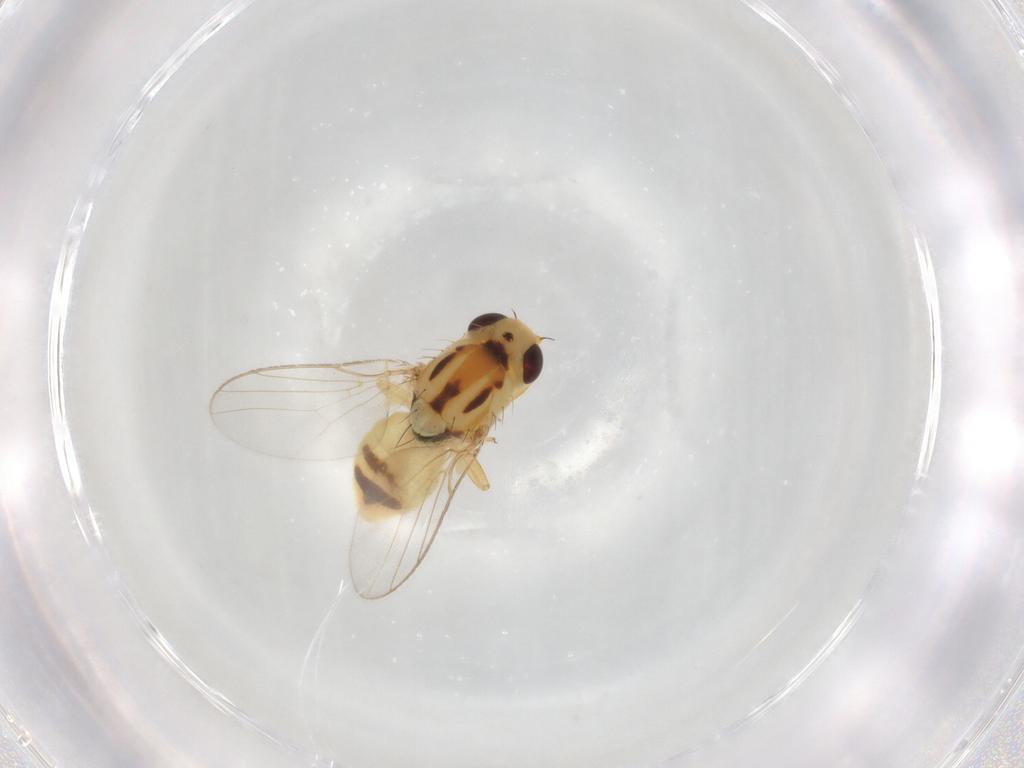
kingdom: Animalia
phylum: Arthropoda
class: Insecta
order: Diptera
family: Chloropidae
